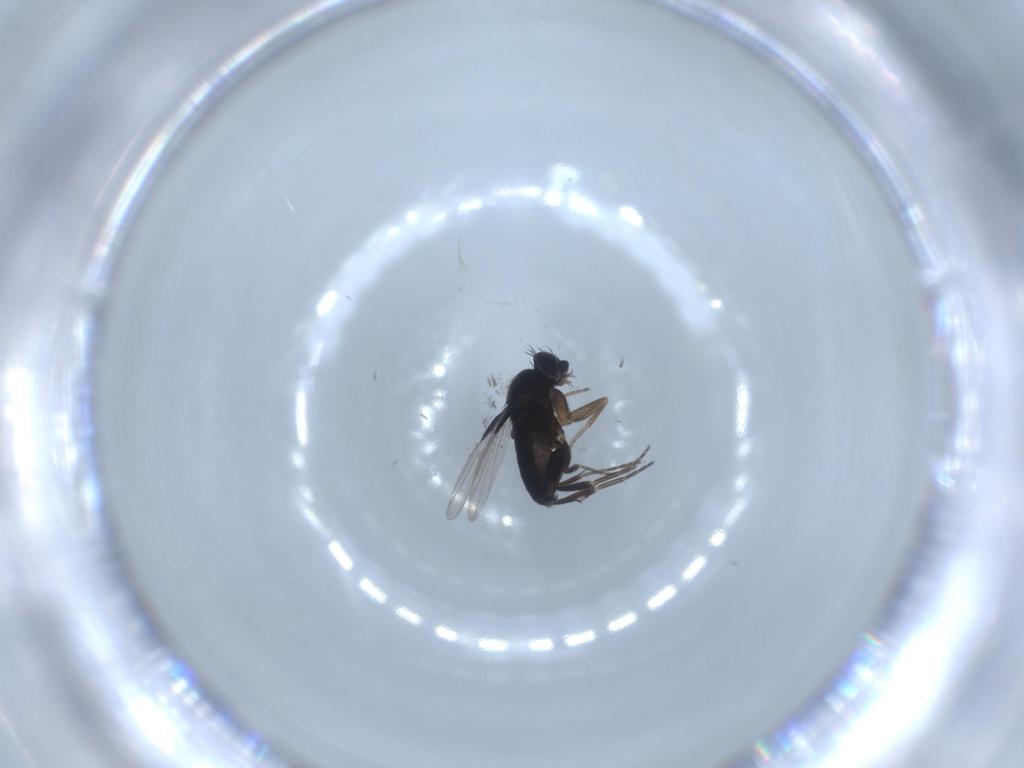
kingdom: Animalia
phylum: Arthropoda
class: Insecta
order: Diptera
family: Phoridae
